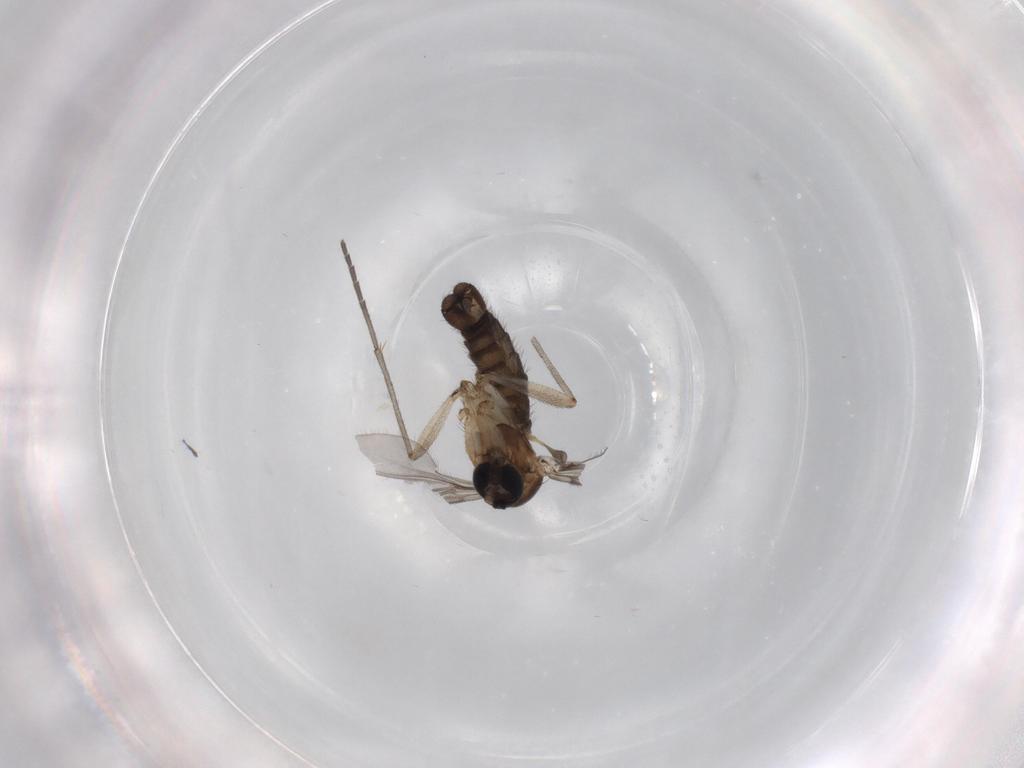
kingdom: Animalia
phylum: Arthropoda
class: Insecta
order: Diptera
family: Sciaridae
